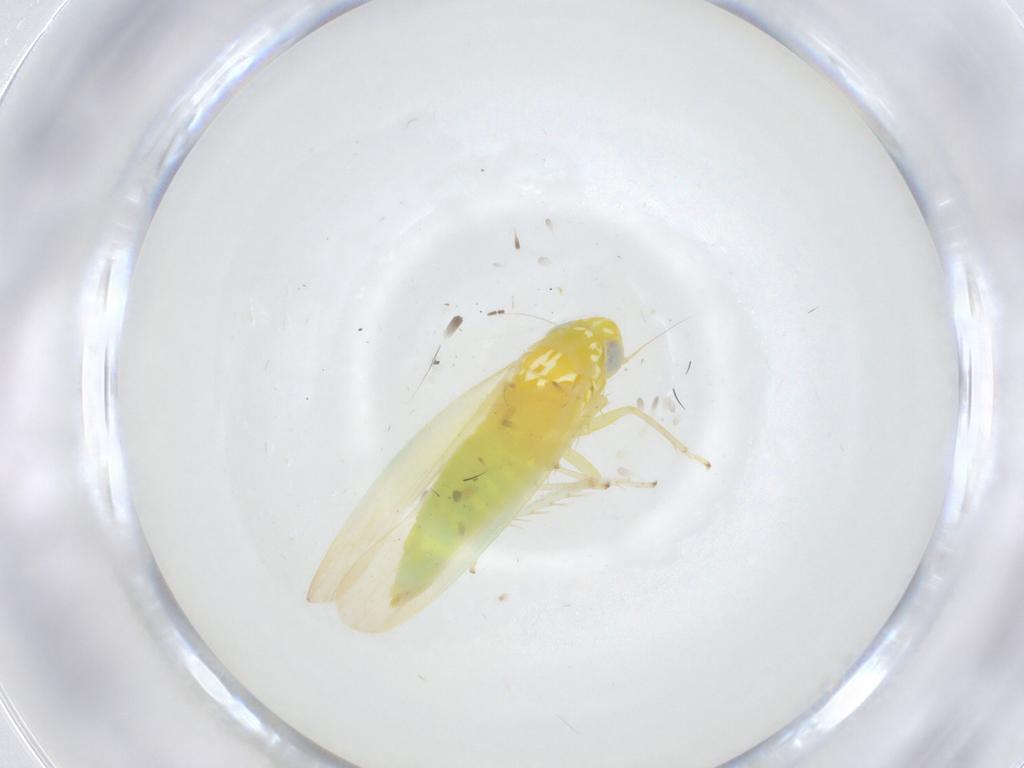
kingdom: Animalia
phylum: Arthropoda
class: Insecta
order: Hemiptera
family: Cicadellidae
